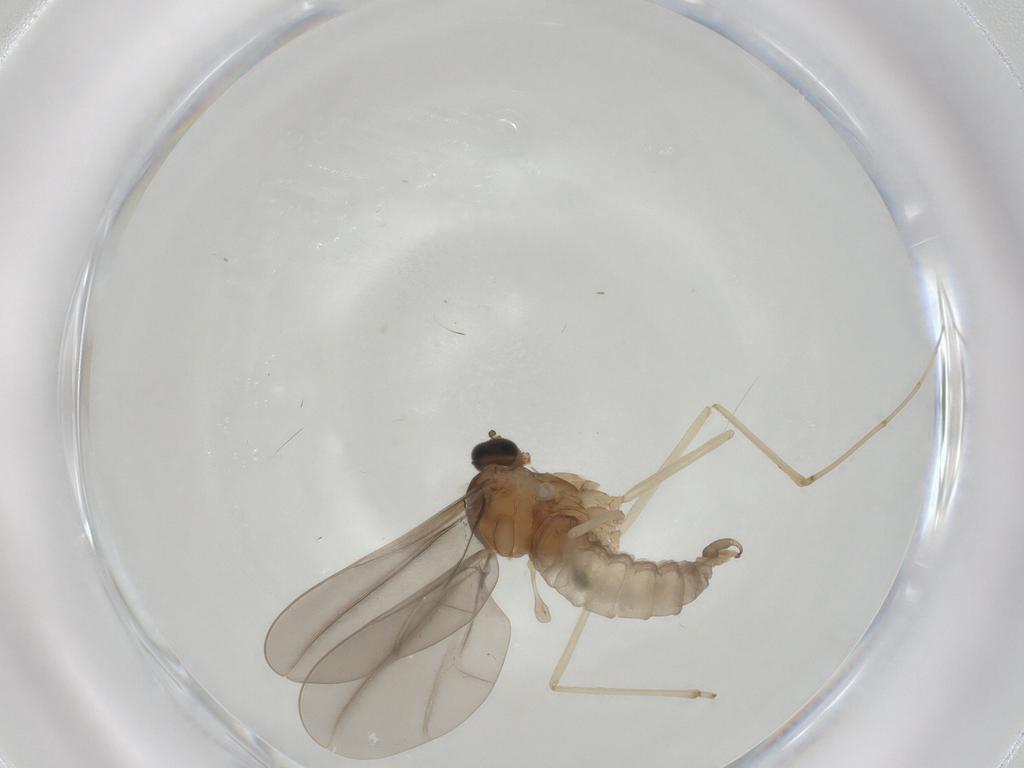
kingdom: Animalia
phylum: Arthropoda
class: Insecta
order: Diptera
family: Cecidomyiidae
